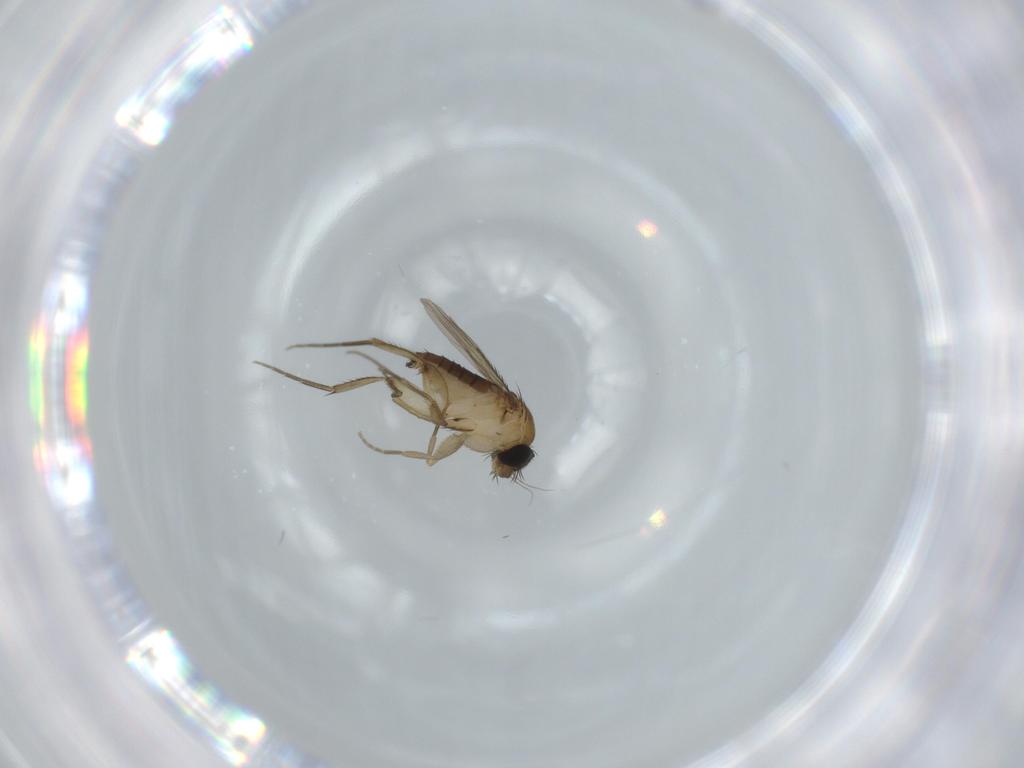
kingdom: Animalia
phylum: Arthropoda
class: Insecta
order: Diptera
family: Phoridae
